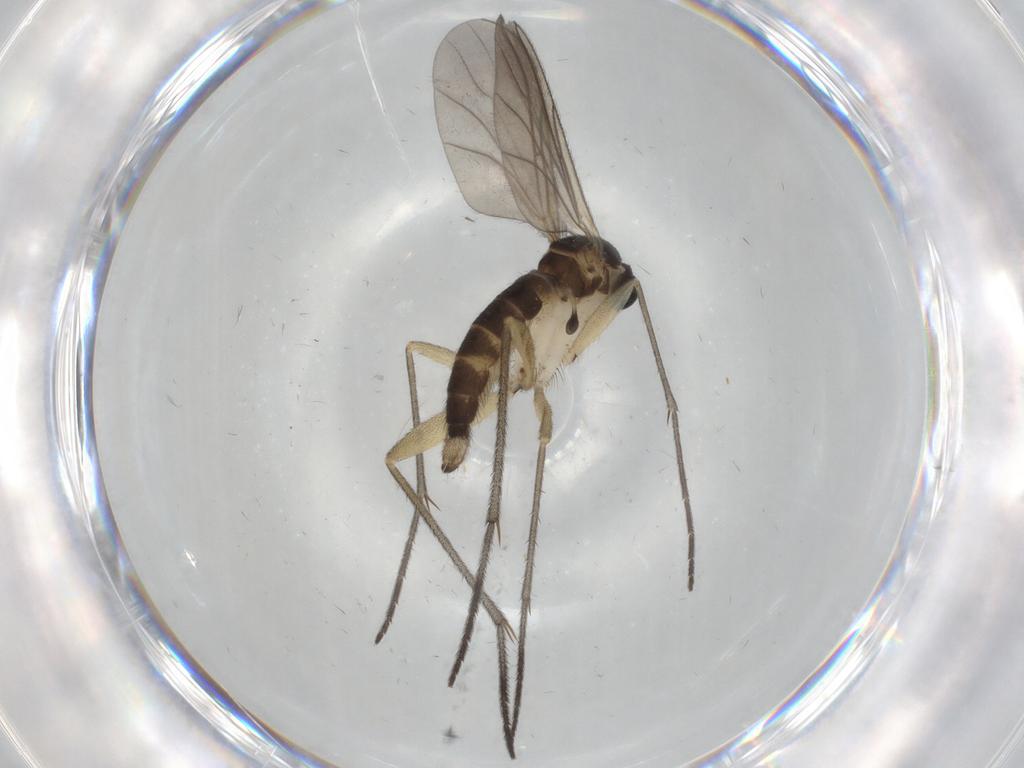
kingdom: Animalia
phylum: Arthropoda
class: Insecta
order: Diptera
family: Sciaridae
